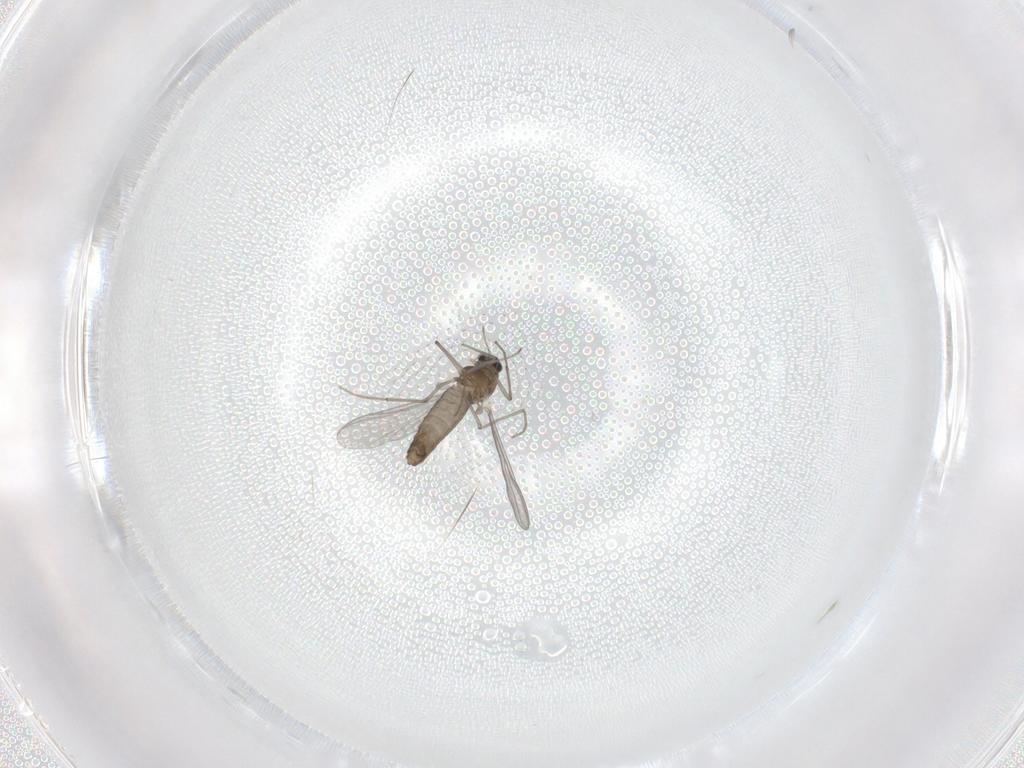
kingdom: Animalia
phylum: Arthropoda
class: Insecta
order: Diptera
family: Chironomidae
